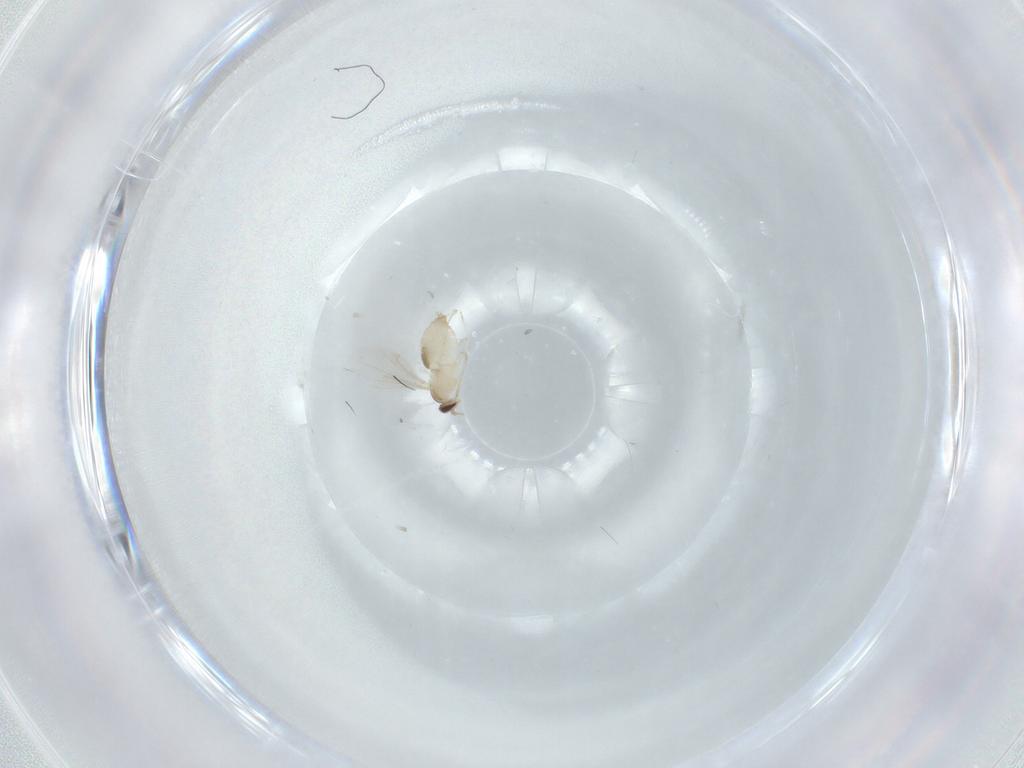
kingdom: Animalia
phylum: Arthropoda
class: Insecta
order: Diptera
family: Cecidomyiidae
